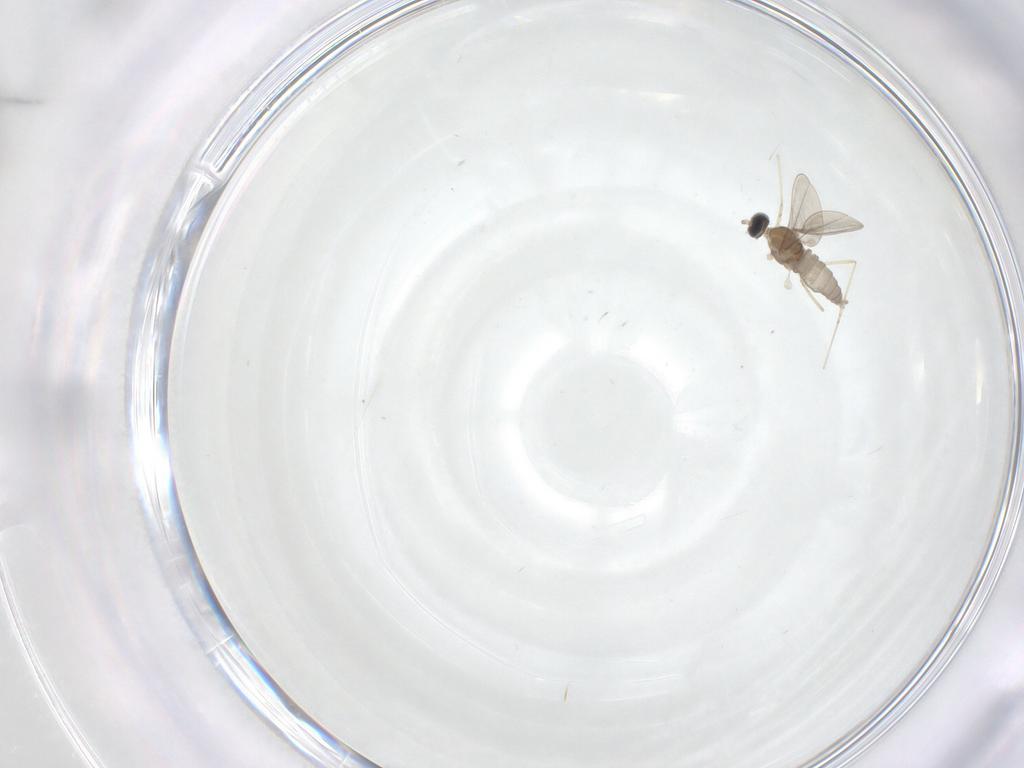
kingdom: Animalia
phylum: Arthropoda
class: Insecta
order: Diptera
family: Cecidomyiidae
